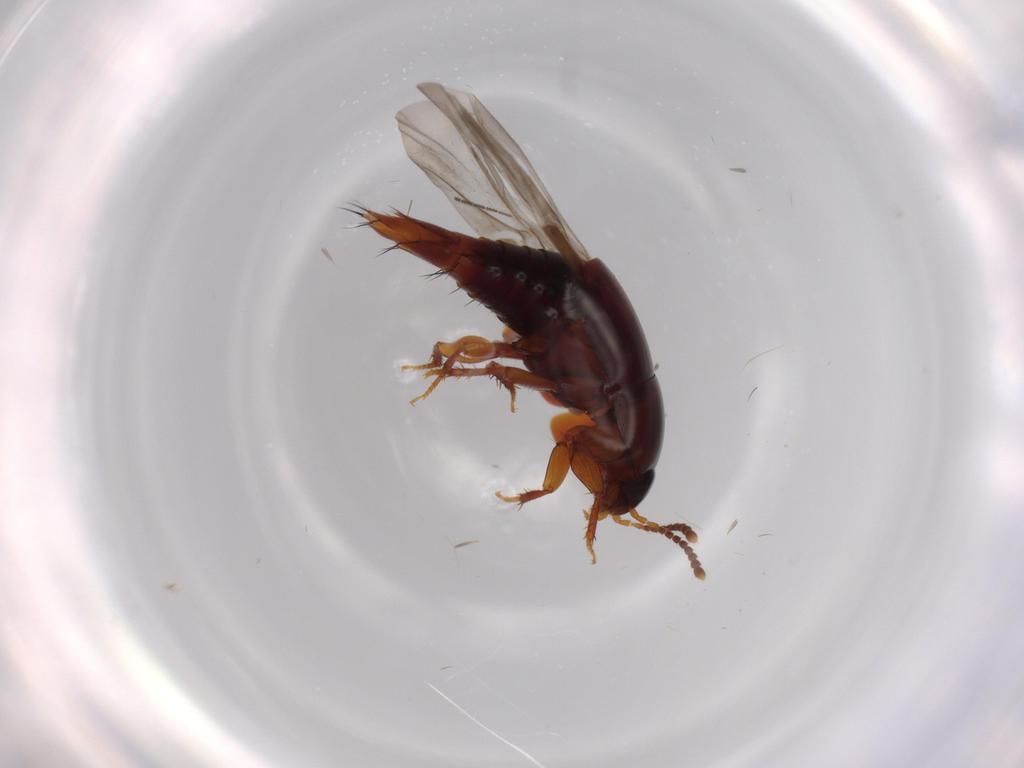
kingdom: Animalia
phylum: Arthropoda
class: Insecta
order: Coleoptera
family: Staphylinidae
